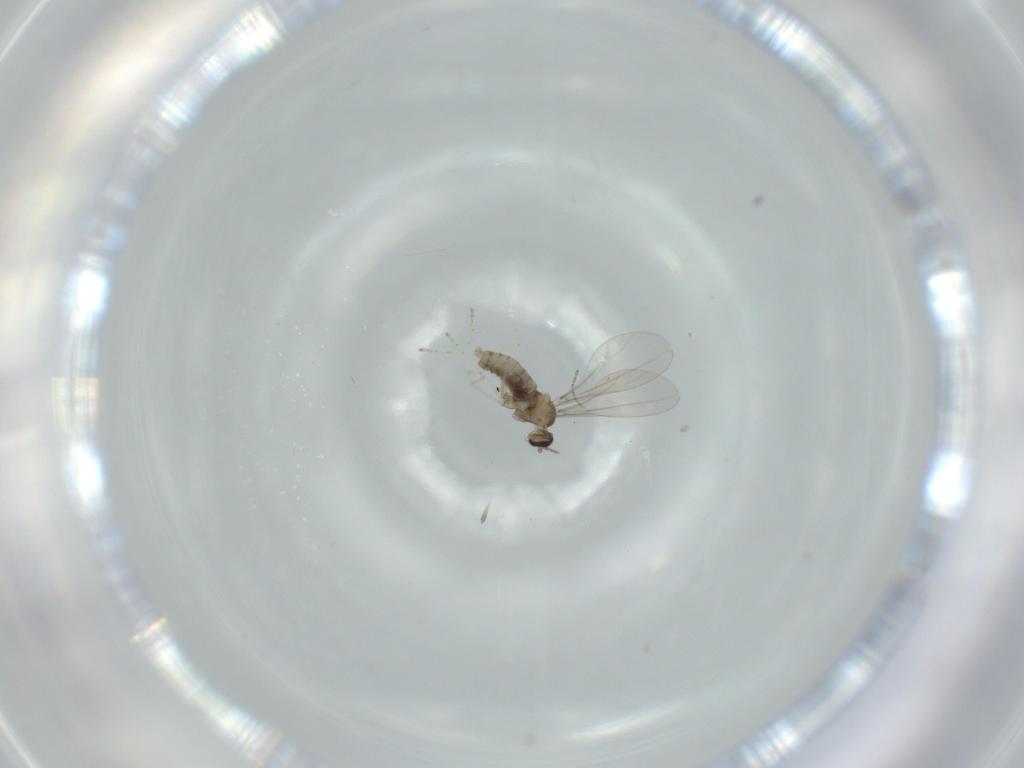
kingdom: Animalia
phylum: Arthropoda
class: Insecta
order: Diptera
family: Cecidomyiidae
